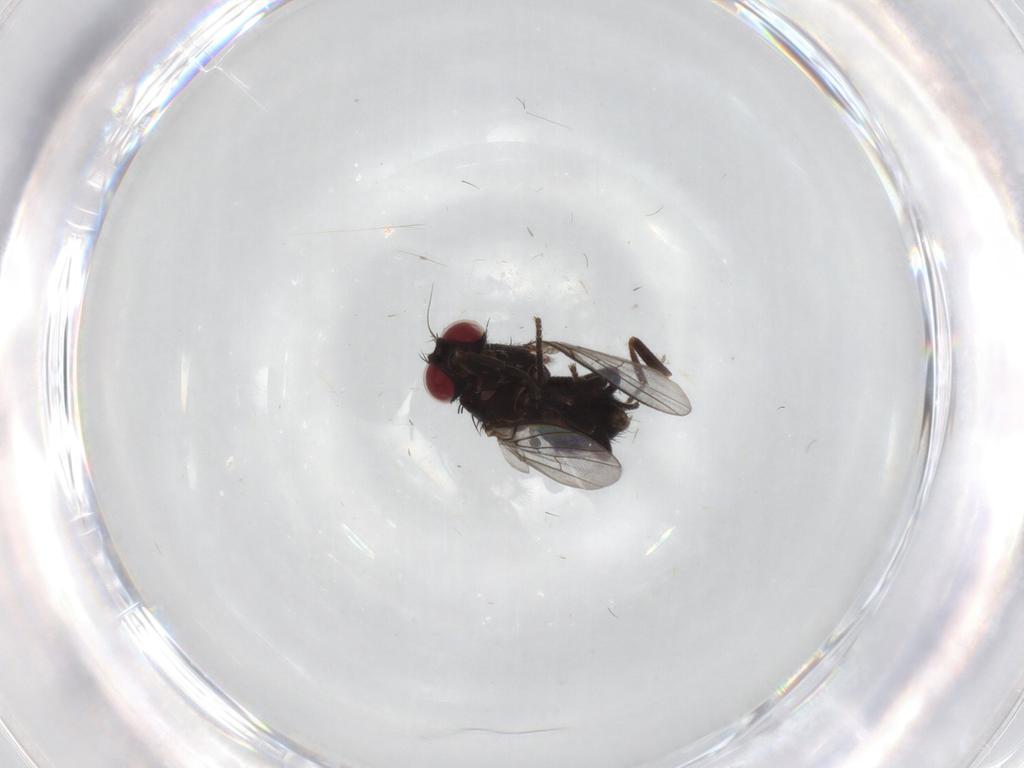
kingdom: Animalia
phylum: Arthropoda
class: Insecta
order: Diptera
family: Cecidomyiidae
